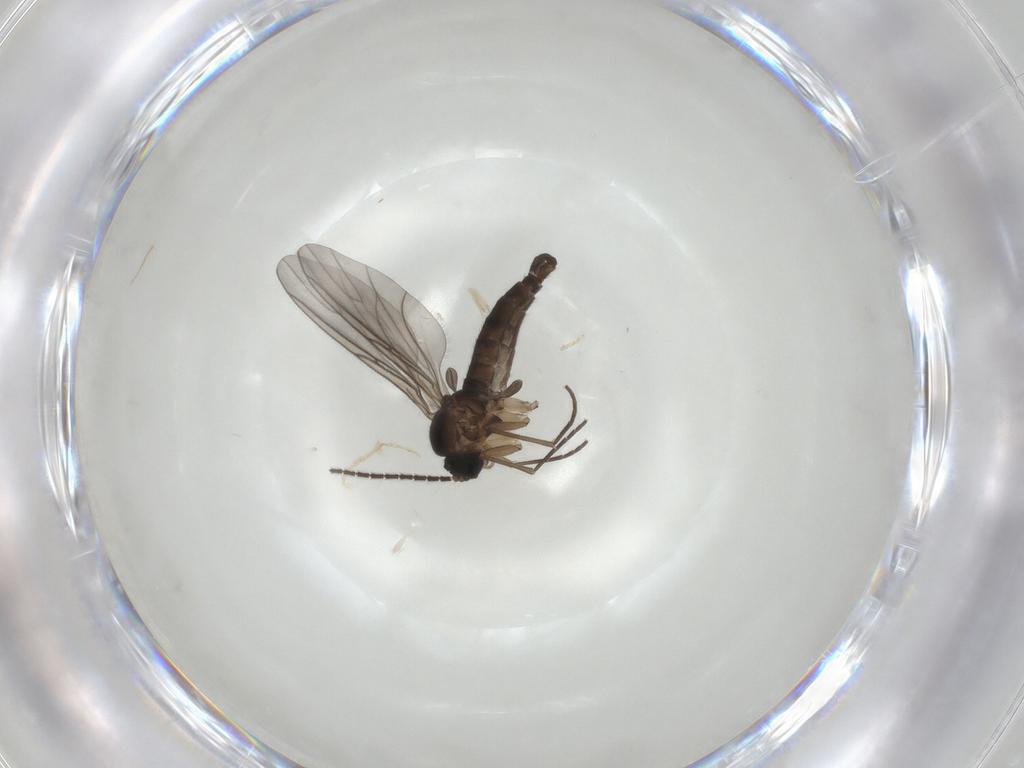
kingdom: Animalia
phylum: Arthropoda
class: Insecta
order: Diptera
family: Sciaridae
